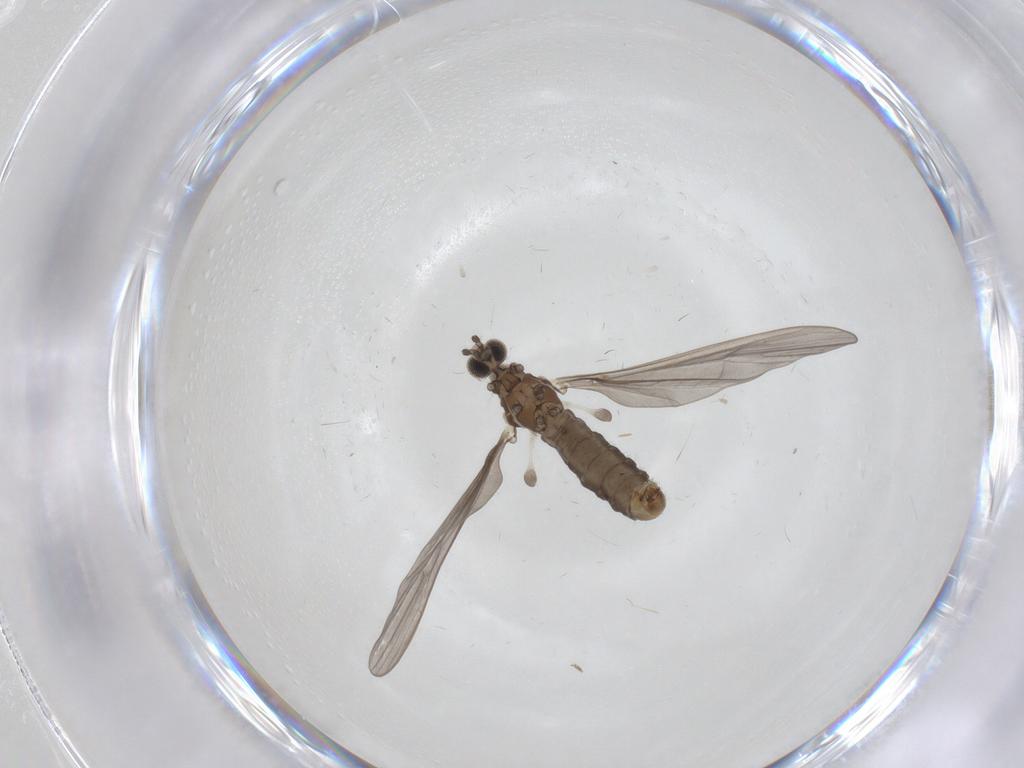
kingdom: Animalia
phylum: Arthropoda
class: Insecta
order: Diptera
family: Limoniidae
